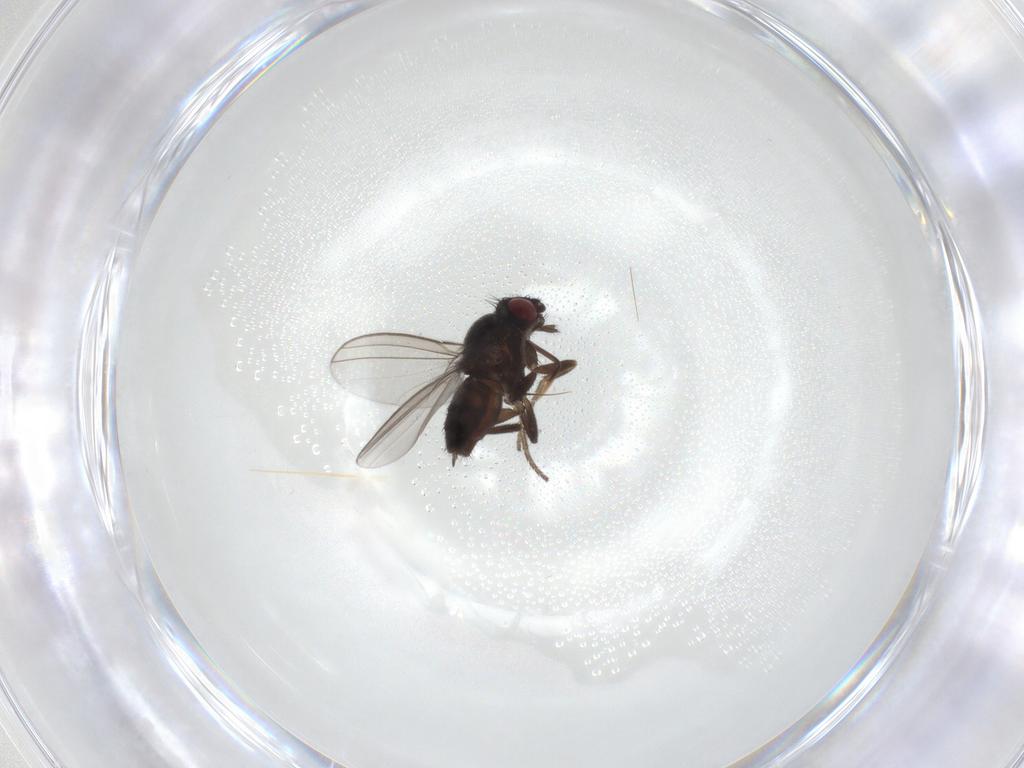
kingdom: Animalia
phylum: Arthropoda
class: Insecta
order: Diptera
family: Milichiidae
